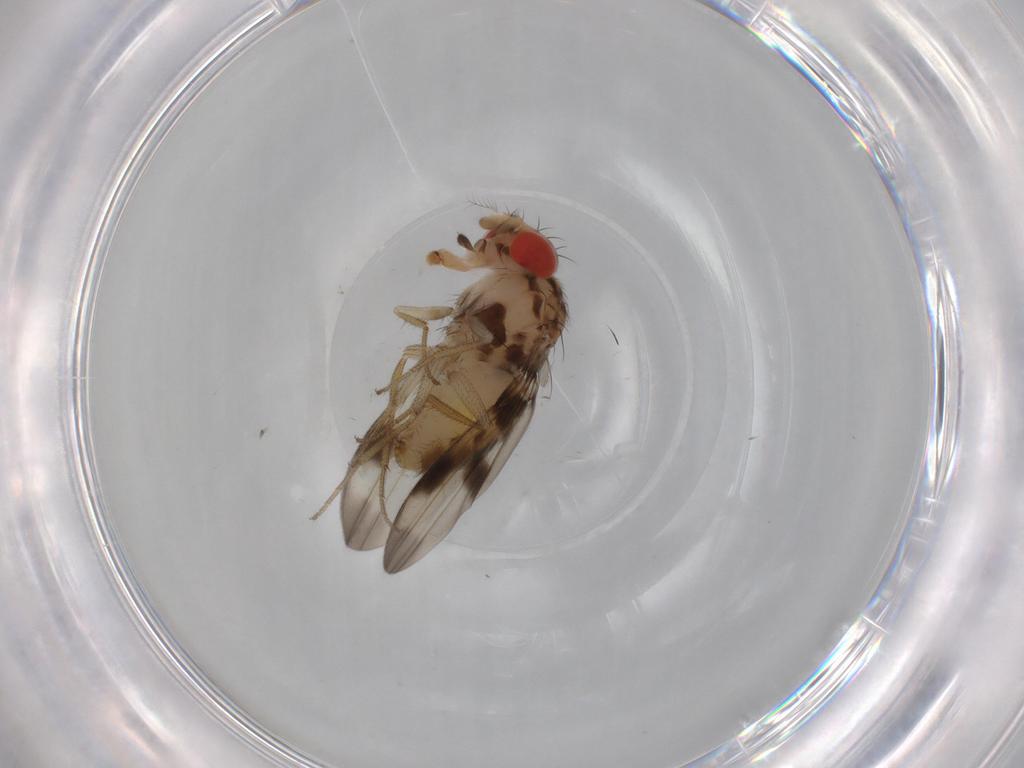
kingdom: Animalia
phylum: Arthropoda
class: Insecta
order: Diptera
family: Drosophilidae
